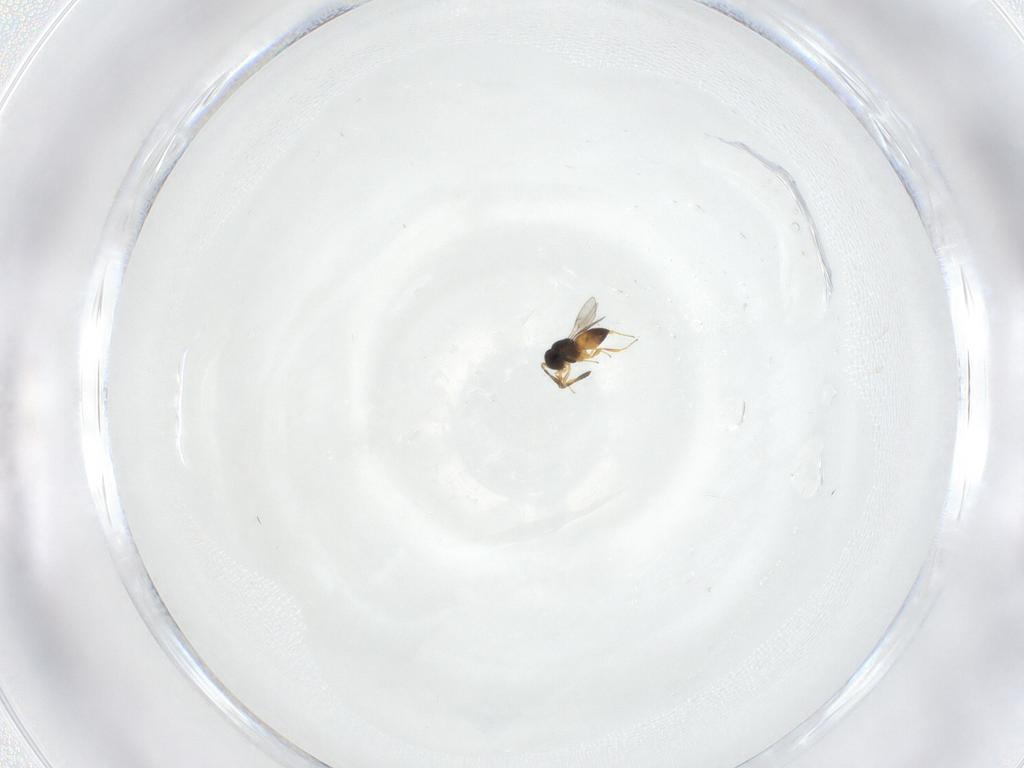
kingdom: Animalia
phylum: Arthropoda
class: Insecta
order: Hymenoptera
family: Scelionidae
